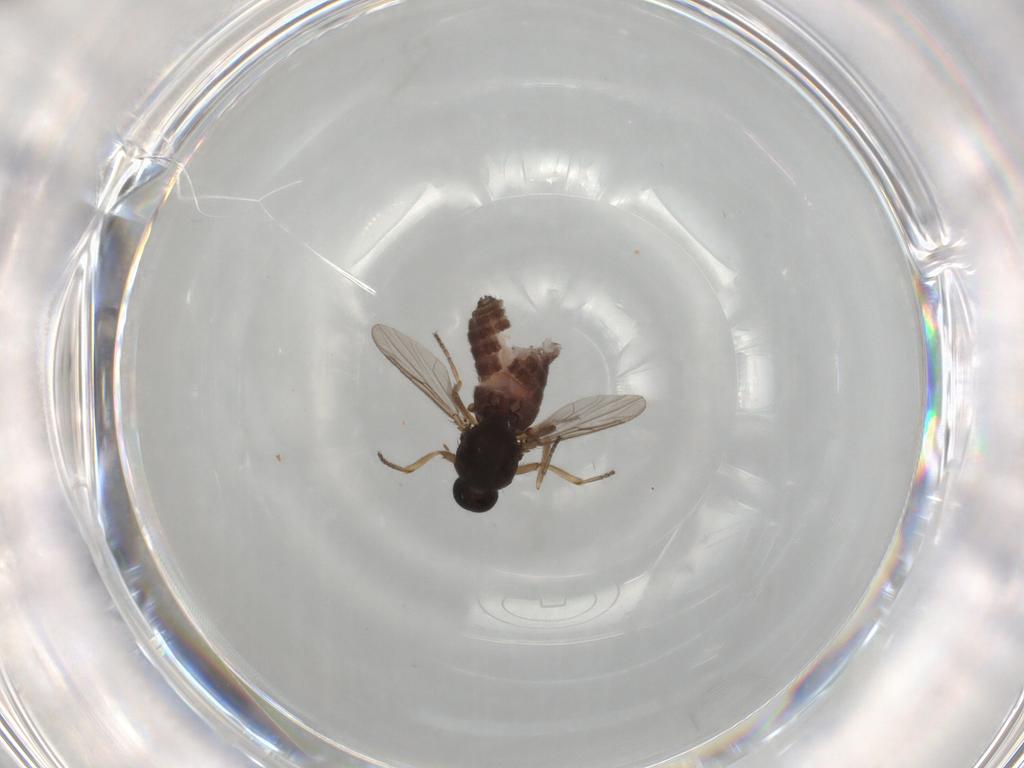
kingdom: Animalia
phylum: Arthropoda
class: Insecta
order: Diptera
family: Ceratopogonidae
